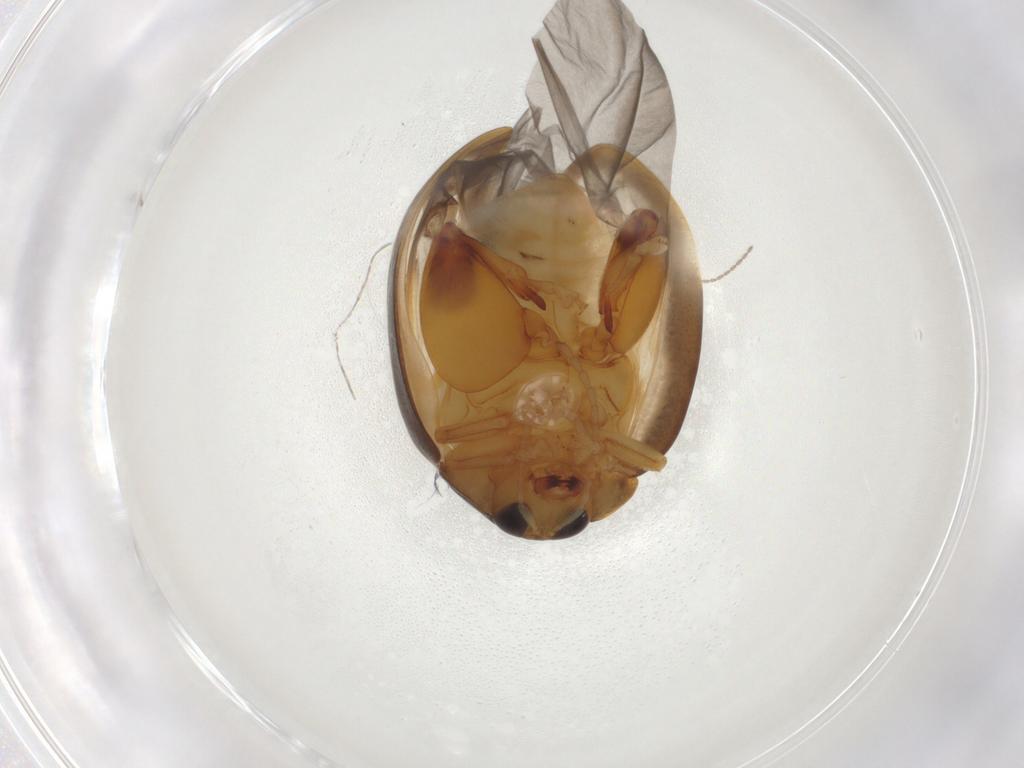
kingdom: Animalia
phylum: Arthropoda
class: Insecta
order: Coleoptera
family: Chrysomelidae
